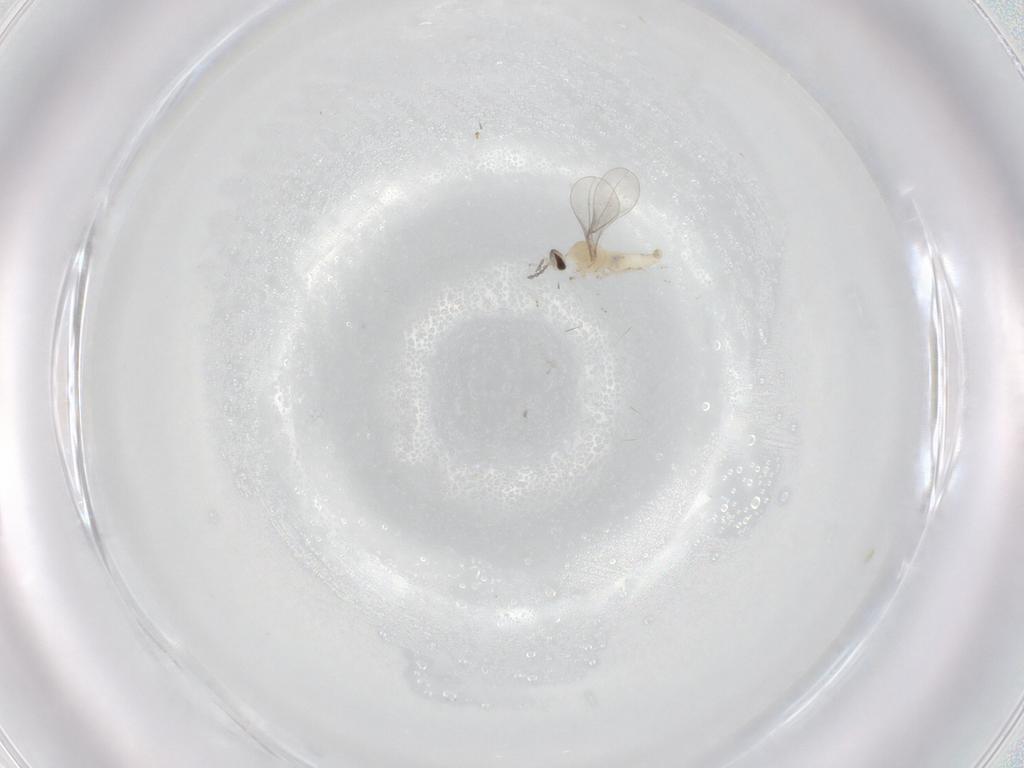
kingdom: Animalia
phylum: Arthropoda
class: Insecta
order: Diptera
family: Cecidomyiidae
